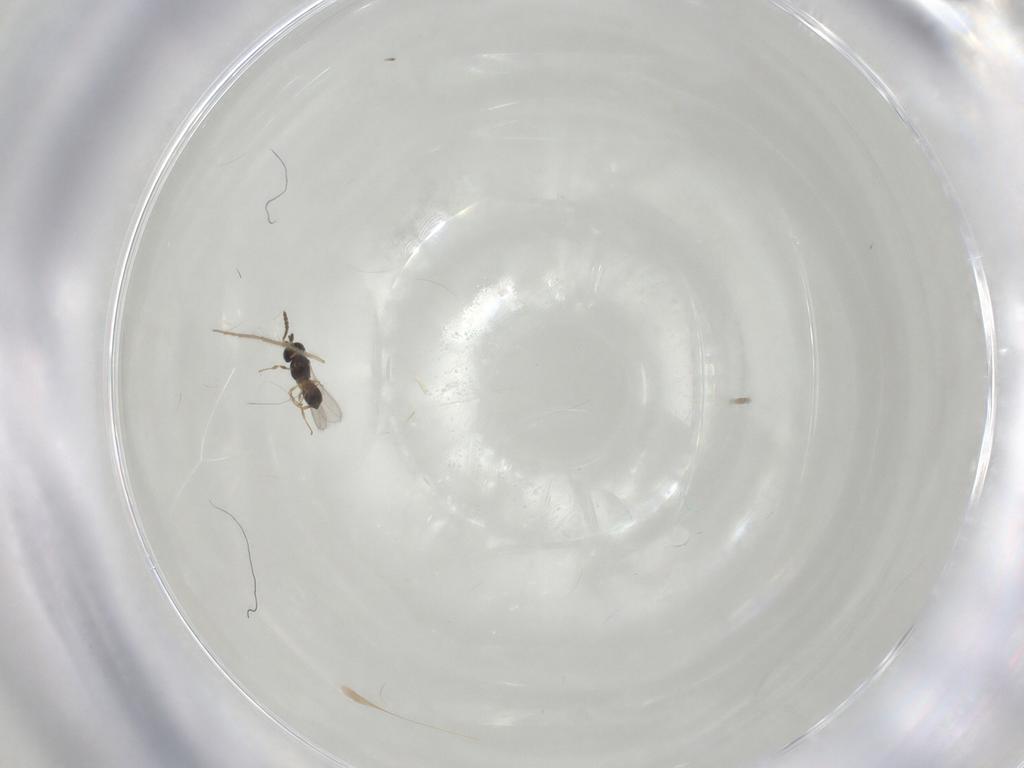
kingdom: Animalia
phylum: Arthropoda
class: Insecta
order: Hymenoptera
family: Scelionidae
